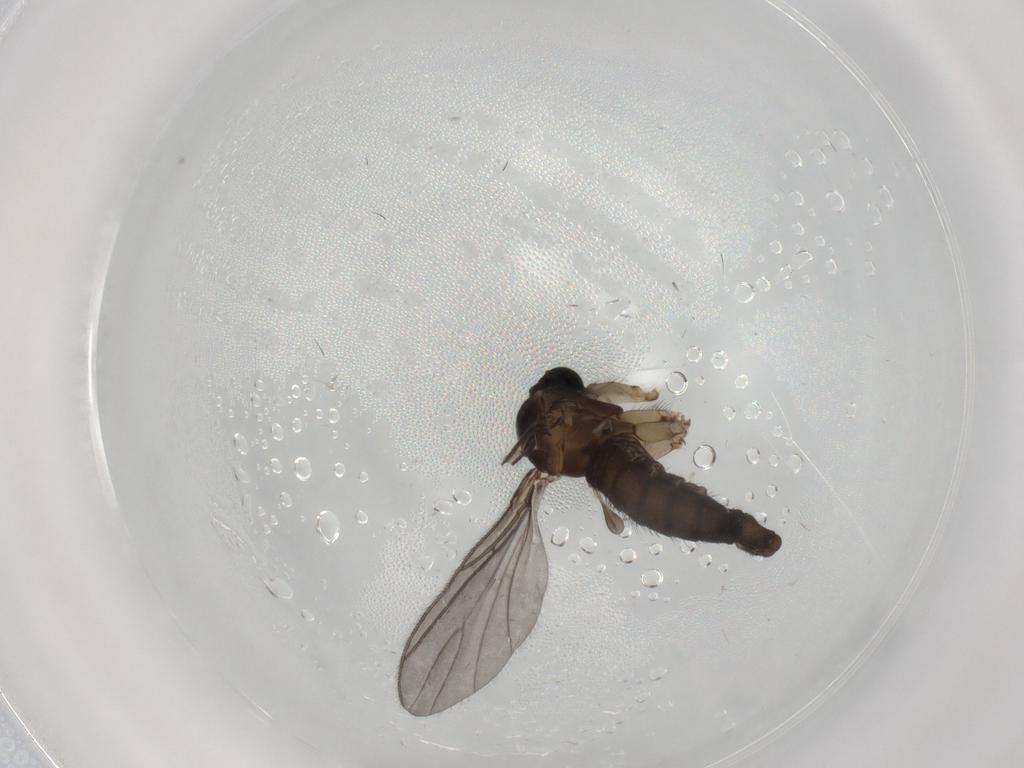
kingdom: Animalia
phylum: Arthropoda
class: Insecta
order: Diptera
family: Sciaridae
